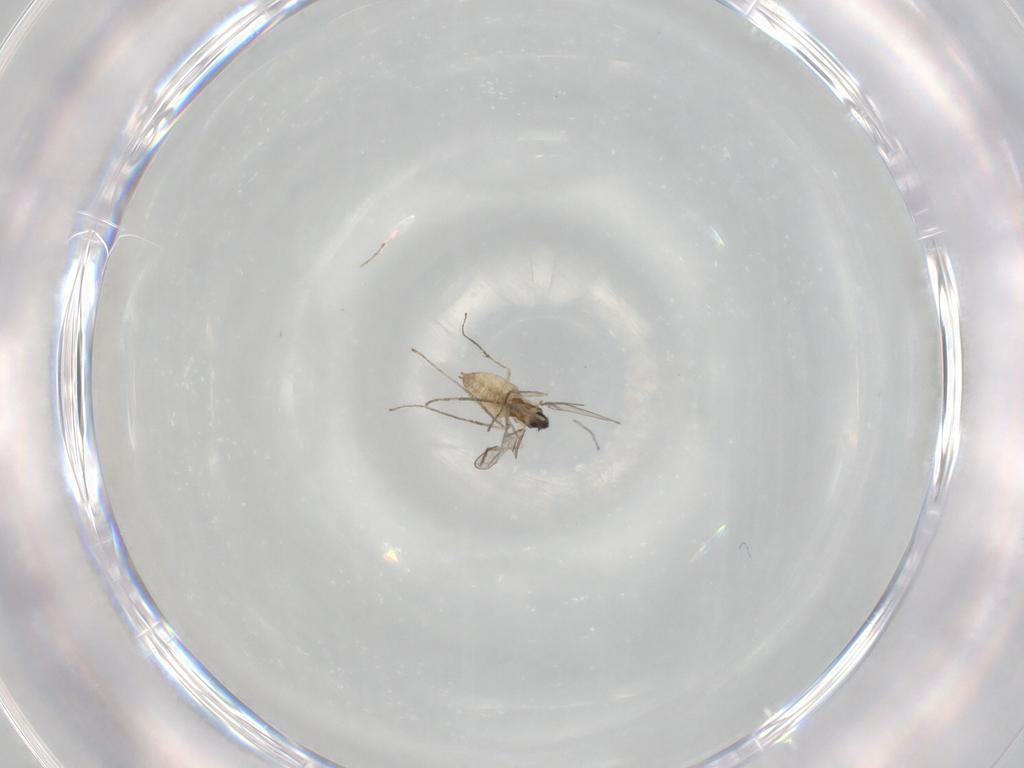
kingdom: Animalia
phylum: Arthropoda
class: Insecta
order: Diptera
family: Cecidomyiidae
